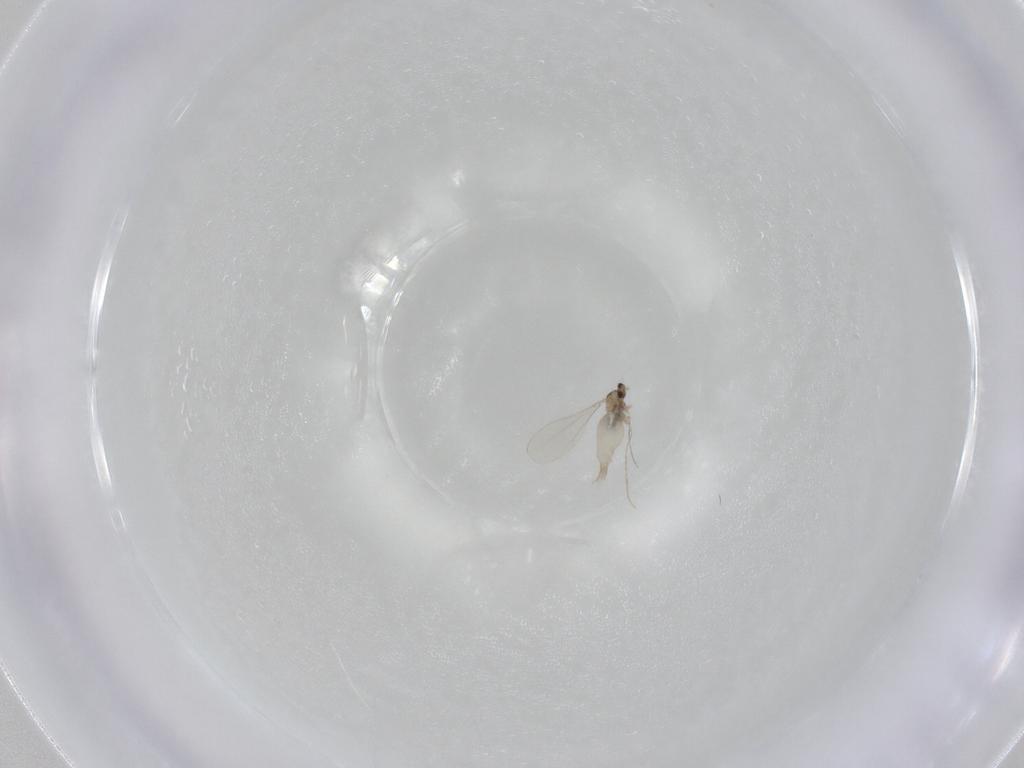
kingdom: Animalia
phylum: Arthropoda
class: Insecta
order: Diptera
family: Cecidomyiidae
